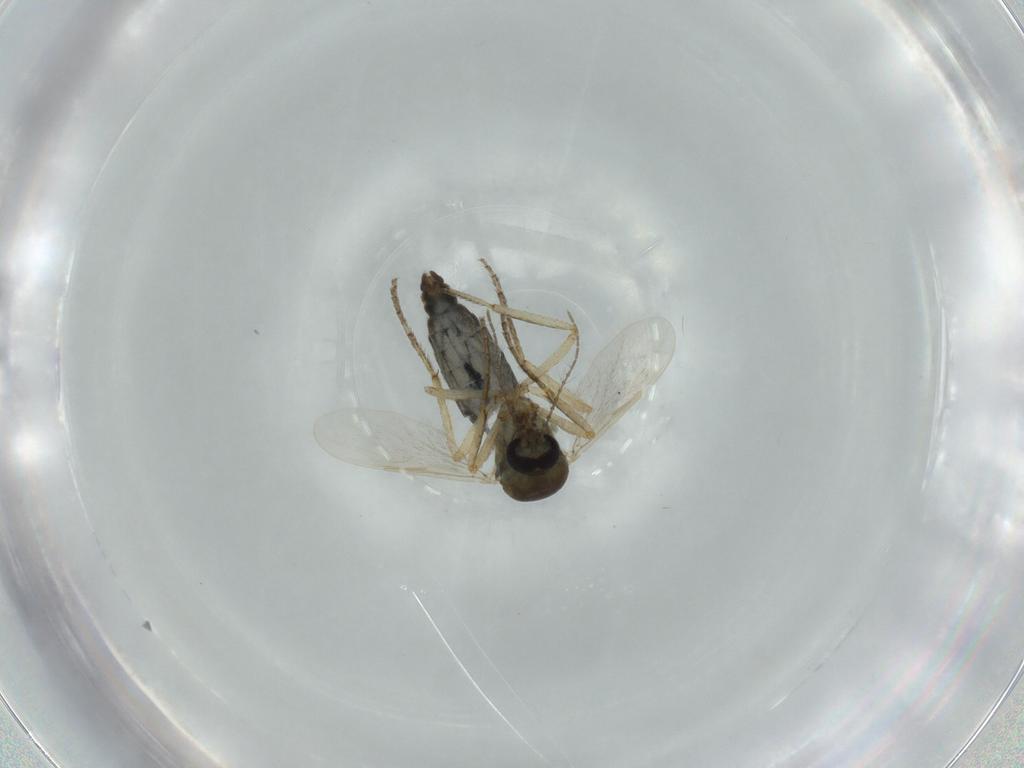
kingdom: Animalia
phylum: Arthropoda
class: Insecta
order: Diptera
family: Ceratopogonidae
